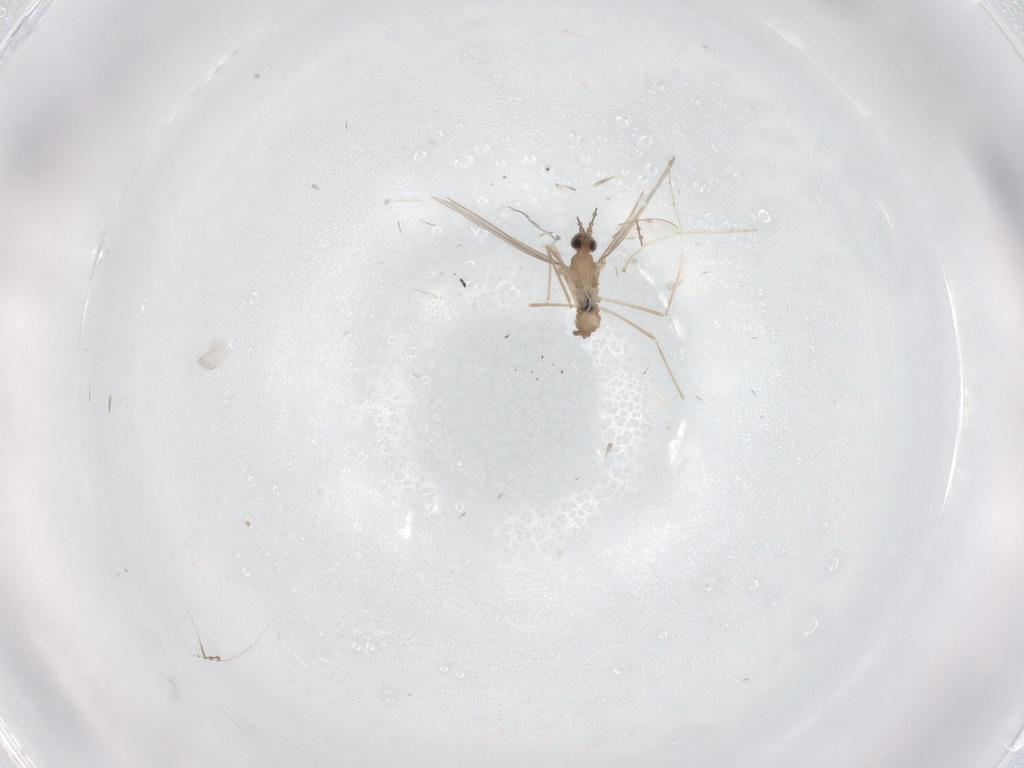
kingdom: Animalia
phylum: Arthropoda
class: Insecta
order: Diptera
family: Cecidomyiidae
